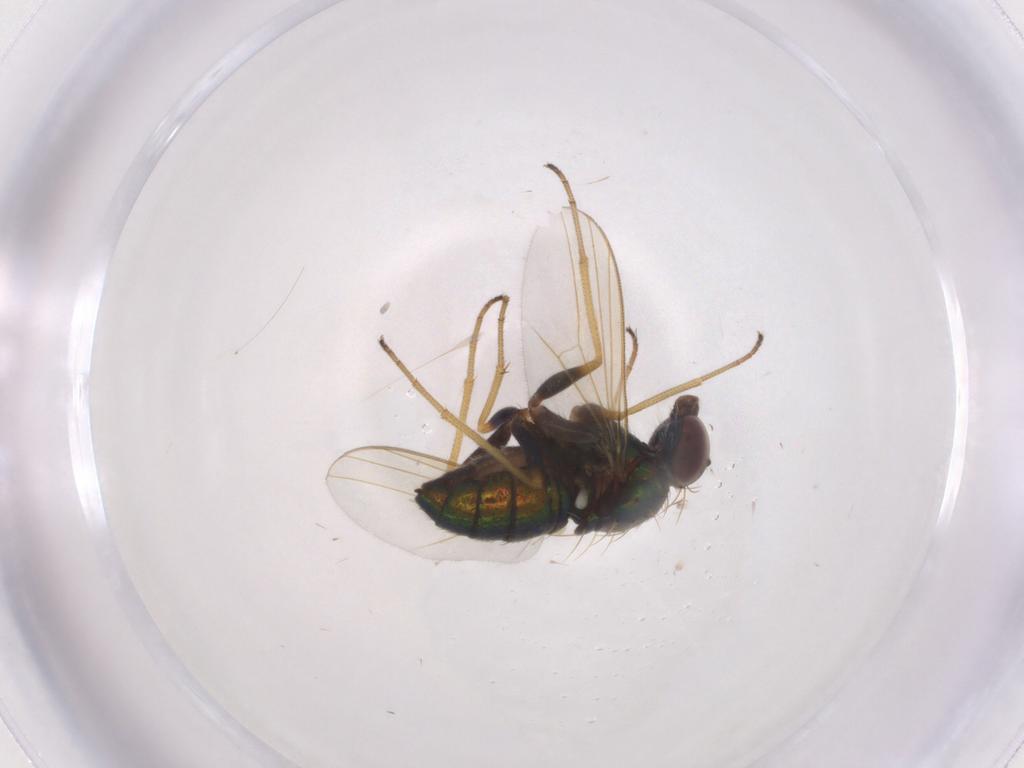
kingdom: Animalia
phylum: Arthropoda
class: Insecta
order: Diptera
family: Dolichopodidae
